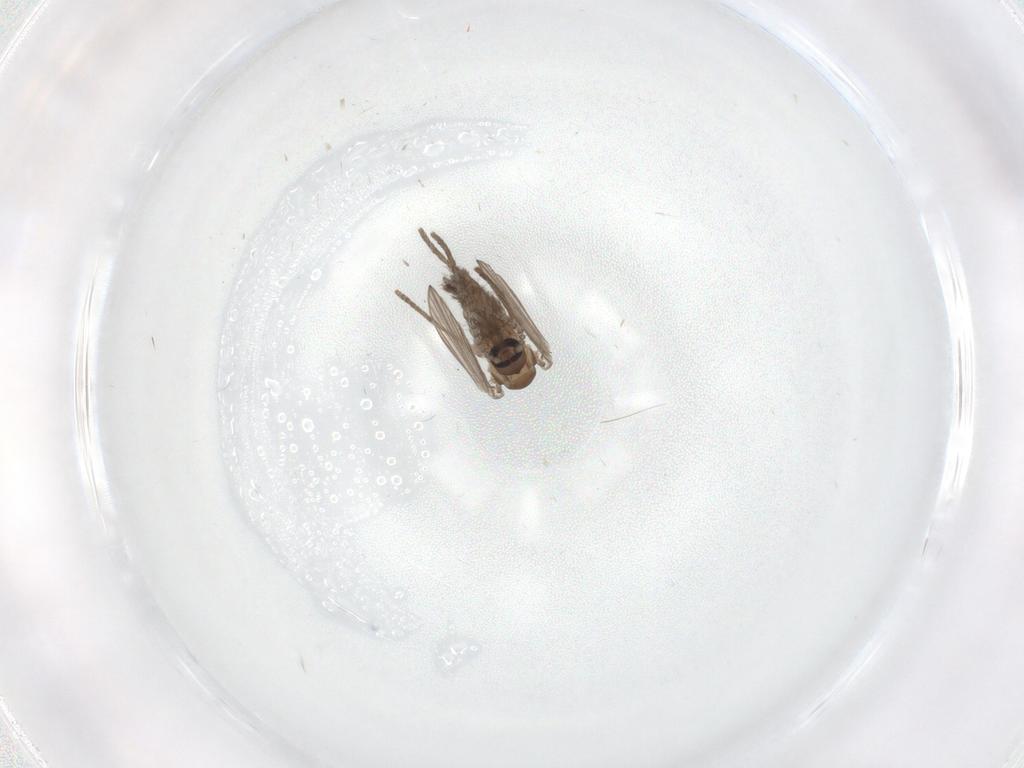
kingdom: Animalia
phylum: Arthropoda
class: Insecta
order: Diptera
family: Psychodidae
